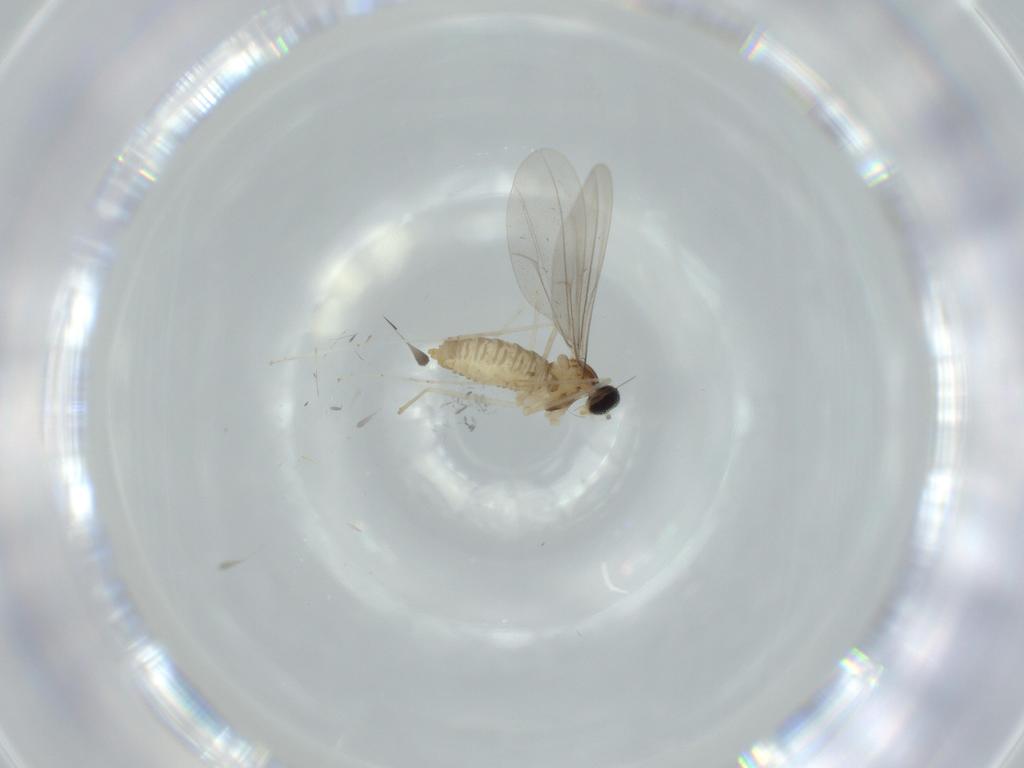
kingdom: Animalia
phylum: Arthropoda
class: Insecta
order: Diptera
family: Cecidomyiidae
